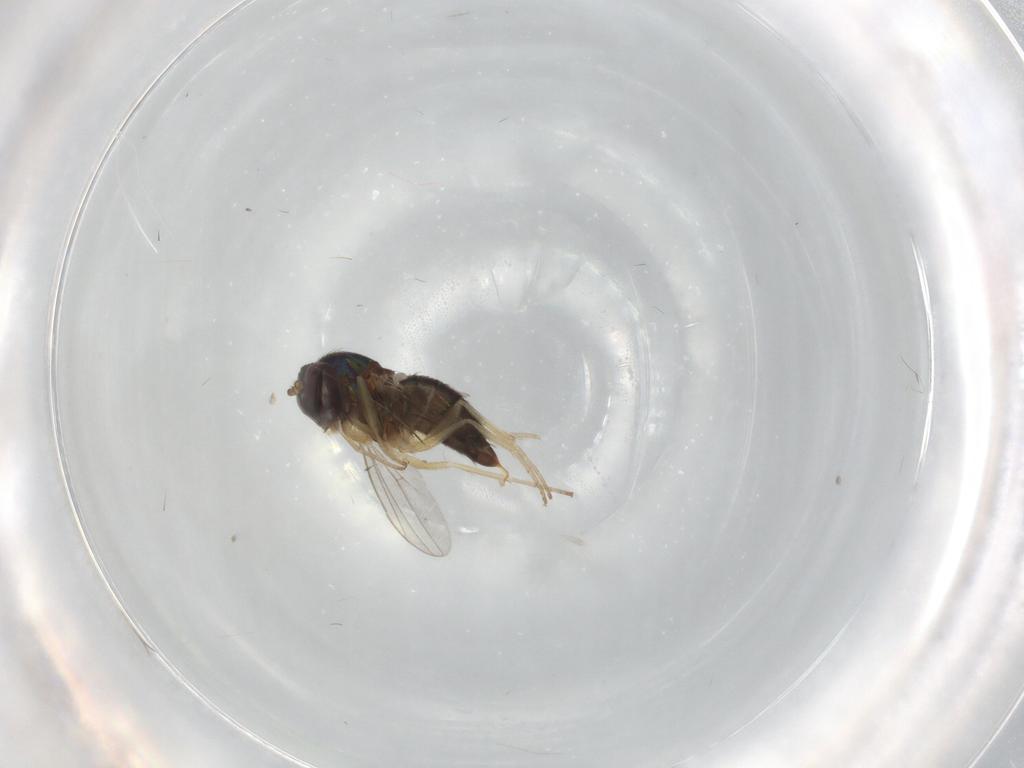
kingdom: Animalia
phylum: Arthropoda
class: Insecta
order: Diptera
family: Dolichopodidae
